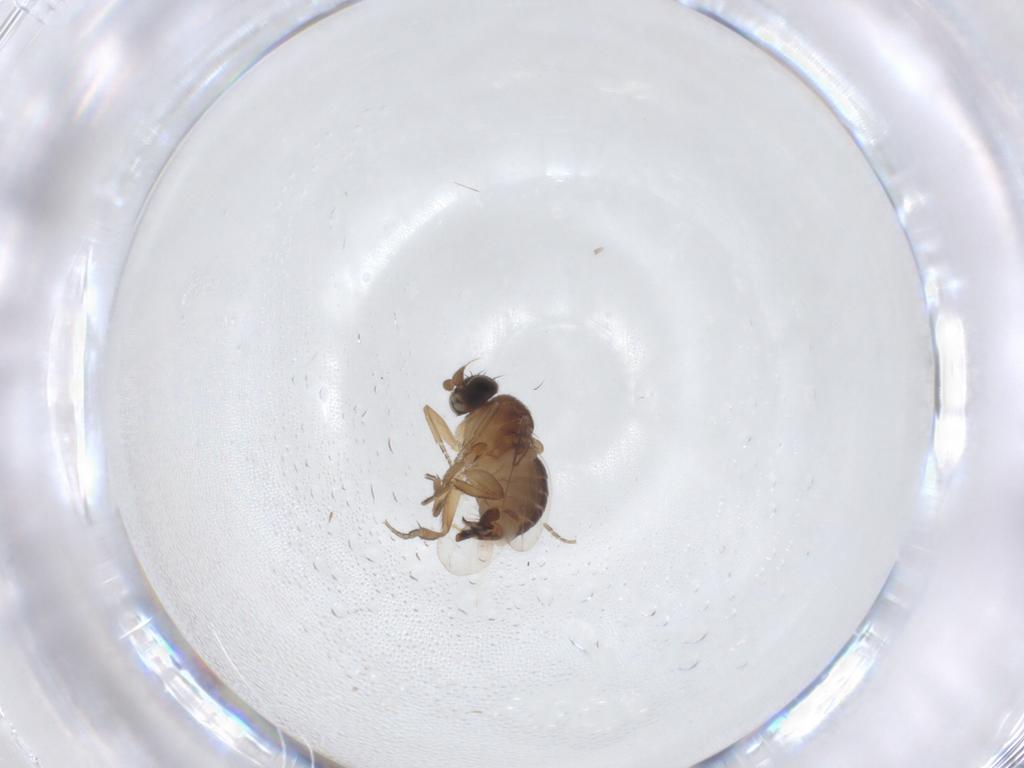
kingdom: Animalia
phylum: Arthropoda
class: Insecta
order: Diptera
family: Phoridae
